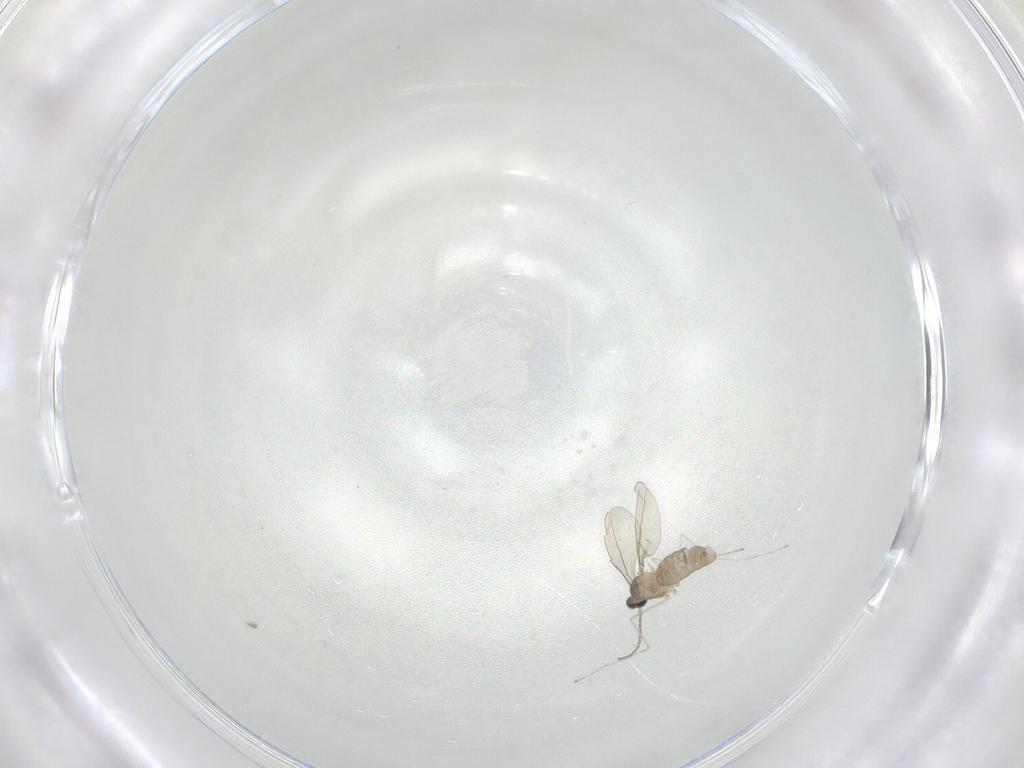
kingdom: Animalia
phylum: Arthropoda
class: Insecta
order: Diptera
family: Cecidomyiidae
